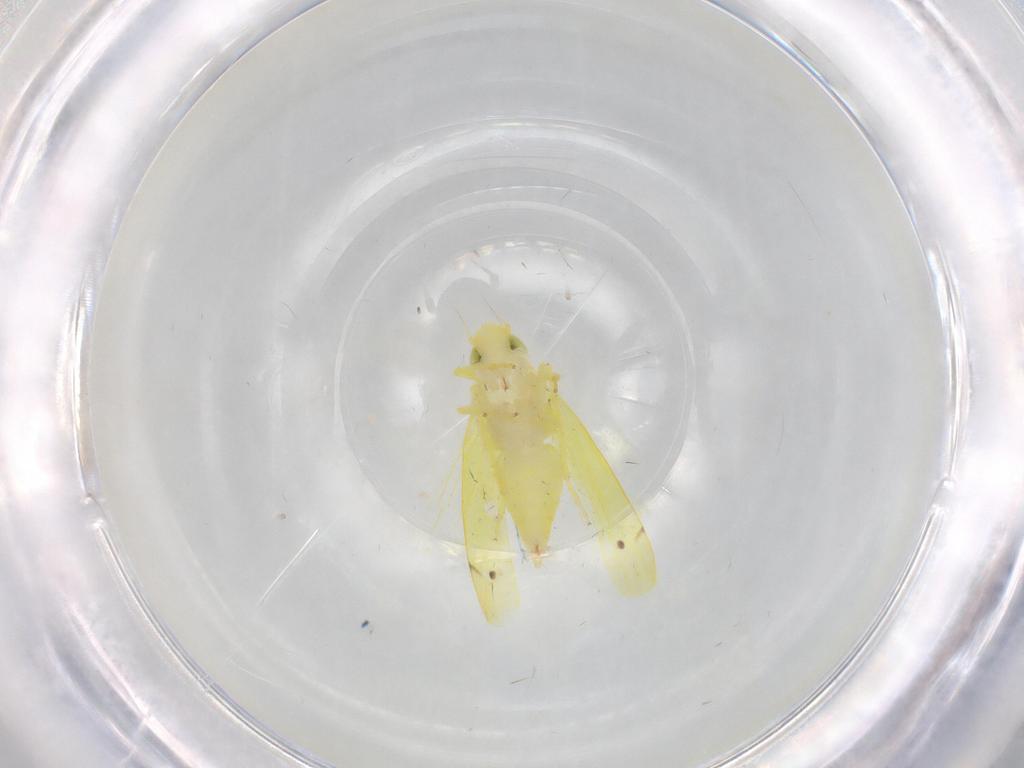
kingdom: Animalia
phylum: Arthropoda
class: Insecta
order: Hemiptera
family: Cicadellidae
